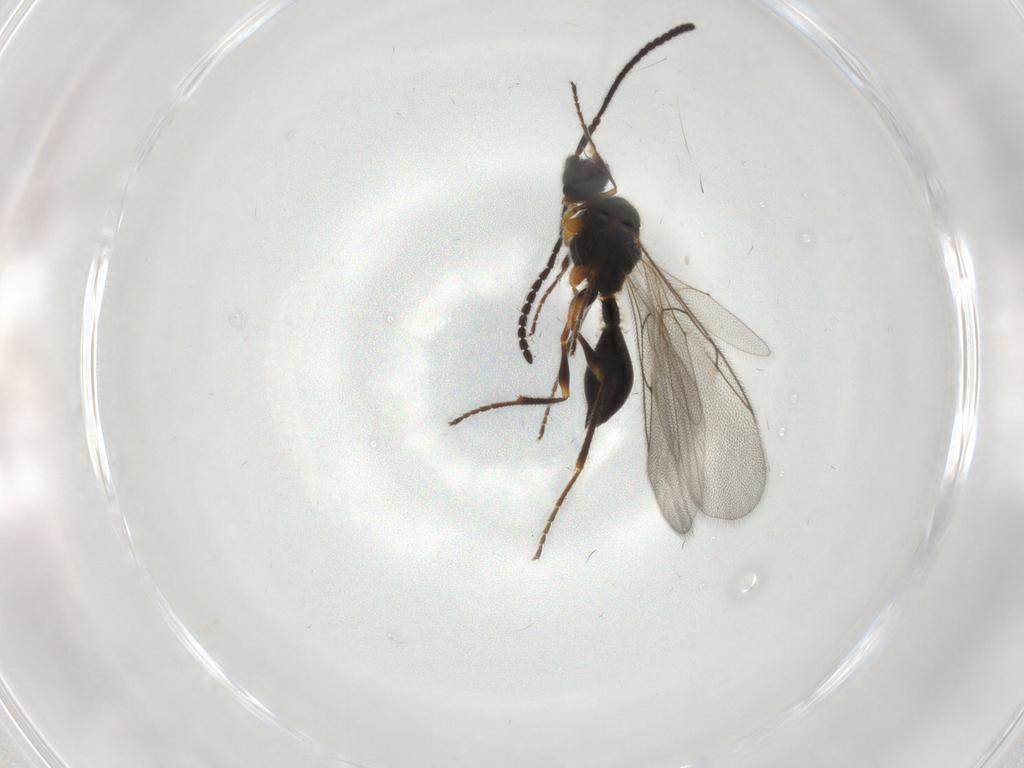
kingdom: Animalia
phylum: Arthropoda
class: Insecta
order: Hymenoptera
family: Diapriidae
